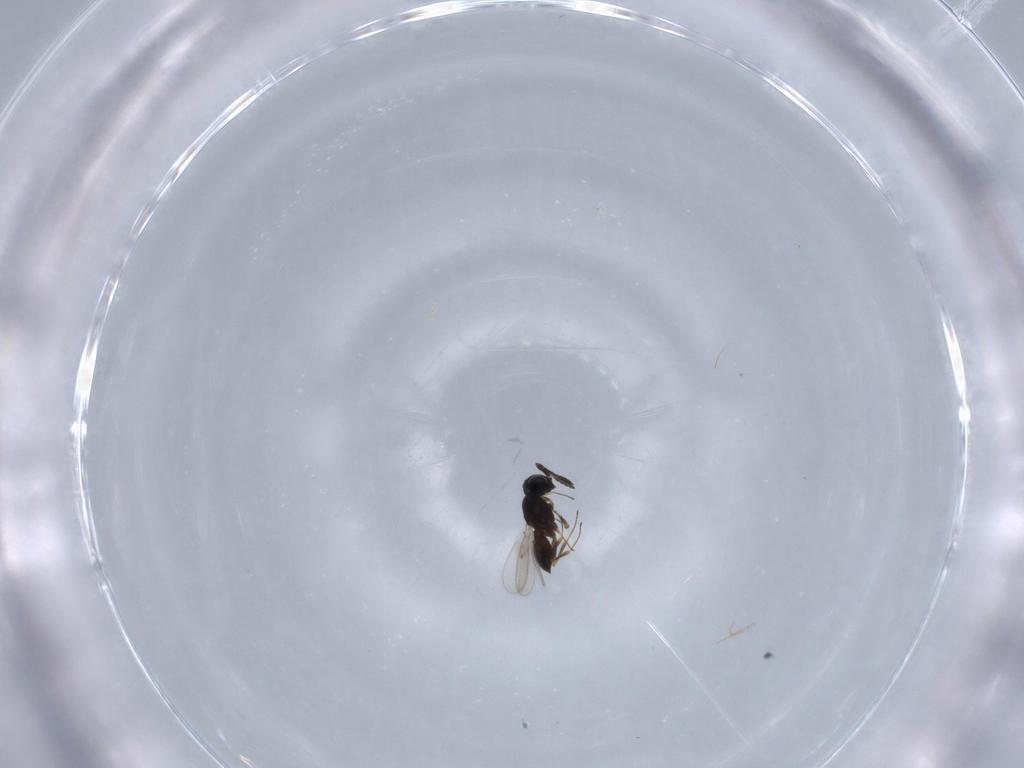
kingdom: Animalia
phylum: Arthropoda
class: Insecta
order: Hymenoptera
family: Scelionidae
